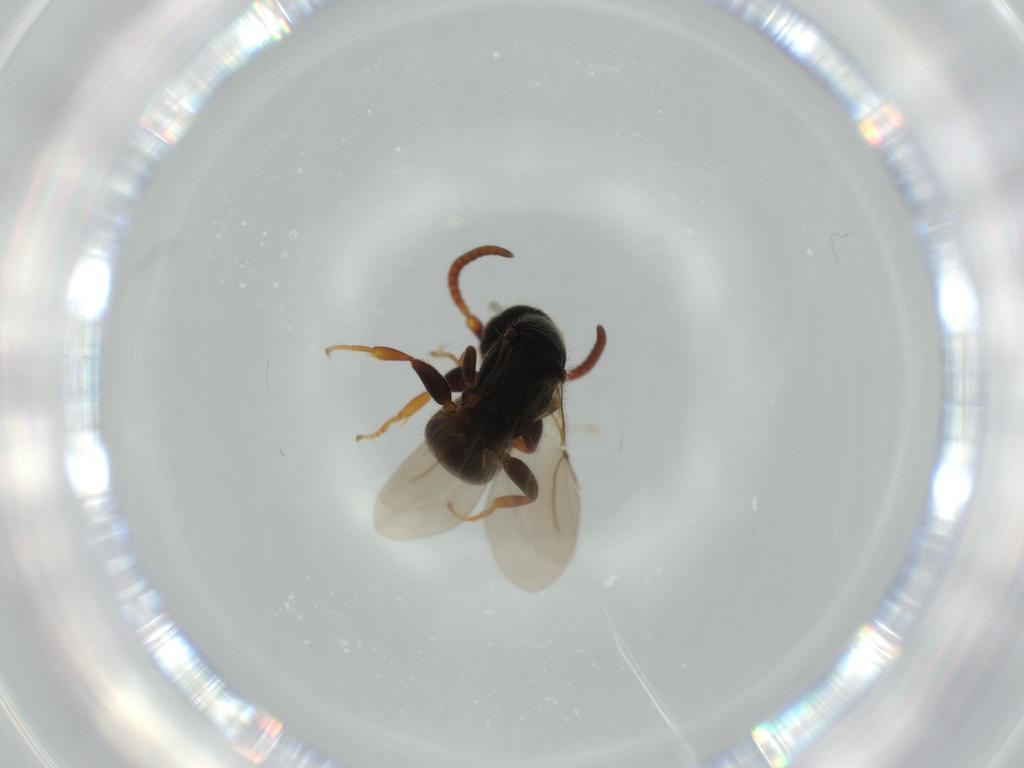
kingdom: Animalia
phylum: Arthropoda
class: Insecta
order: Hymenoptera
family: Bethylidae
